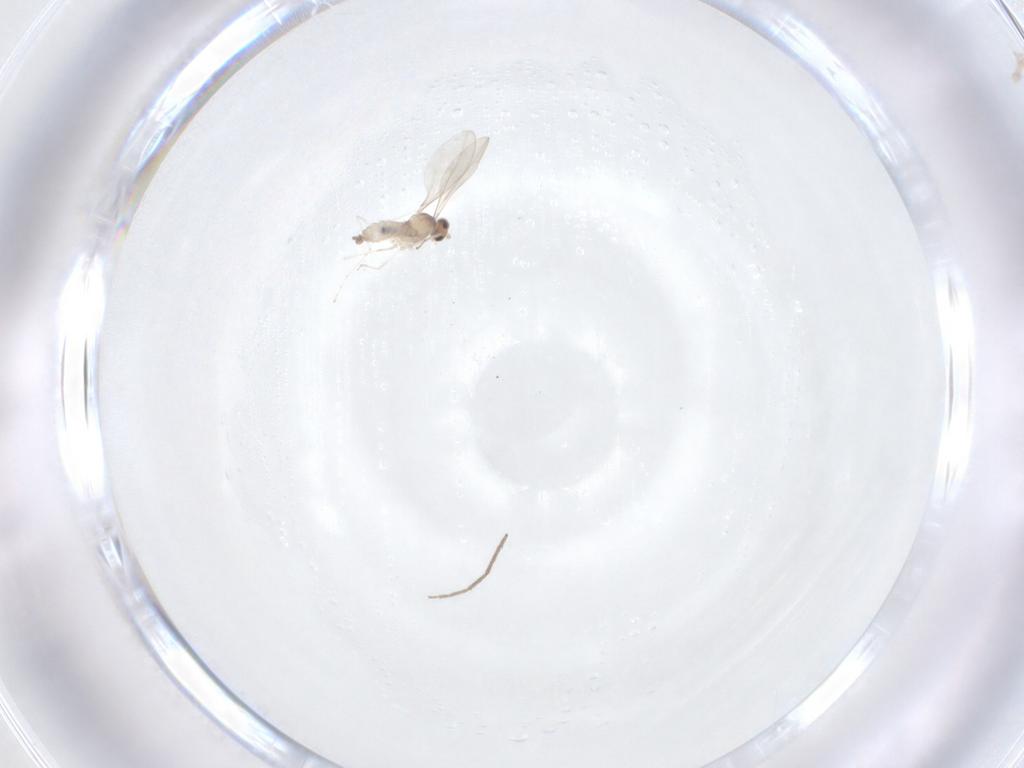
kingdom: Animalia
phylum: Arthropoda
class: Insecta
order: Diptera
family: Cecidomyiidae
